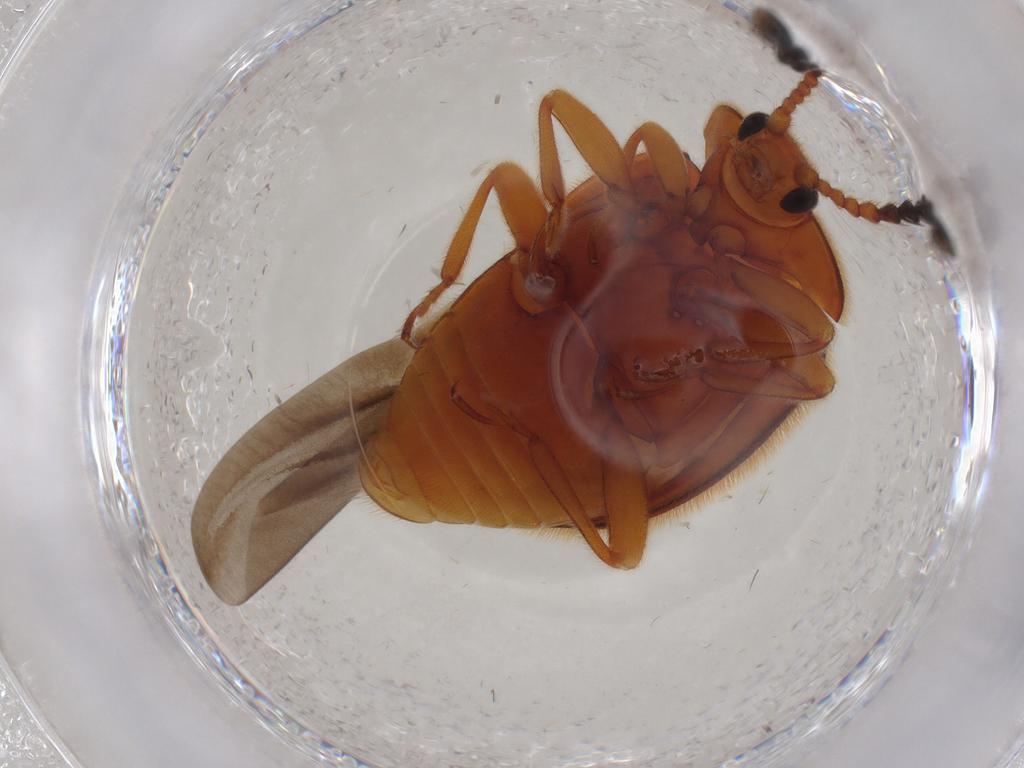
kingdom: Animalia
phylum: Arthropoda
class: Insecta
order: Coleoptera
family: Endomychidae
